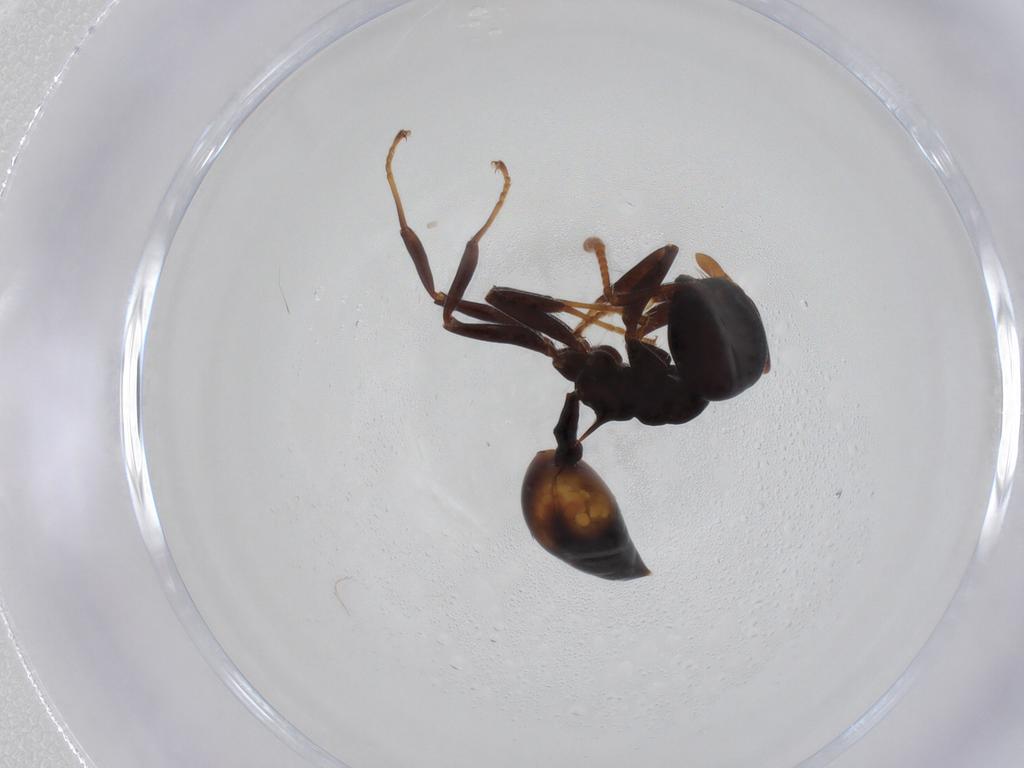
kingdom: Animalia
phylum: Arthropoda
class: Insecta
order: Hymenoptera
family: Formicidae
